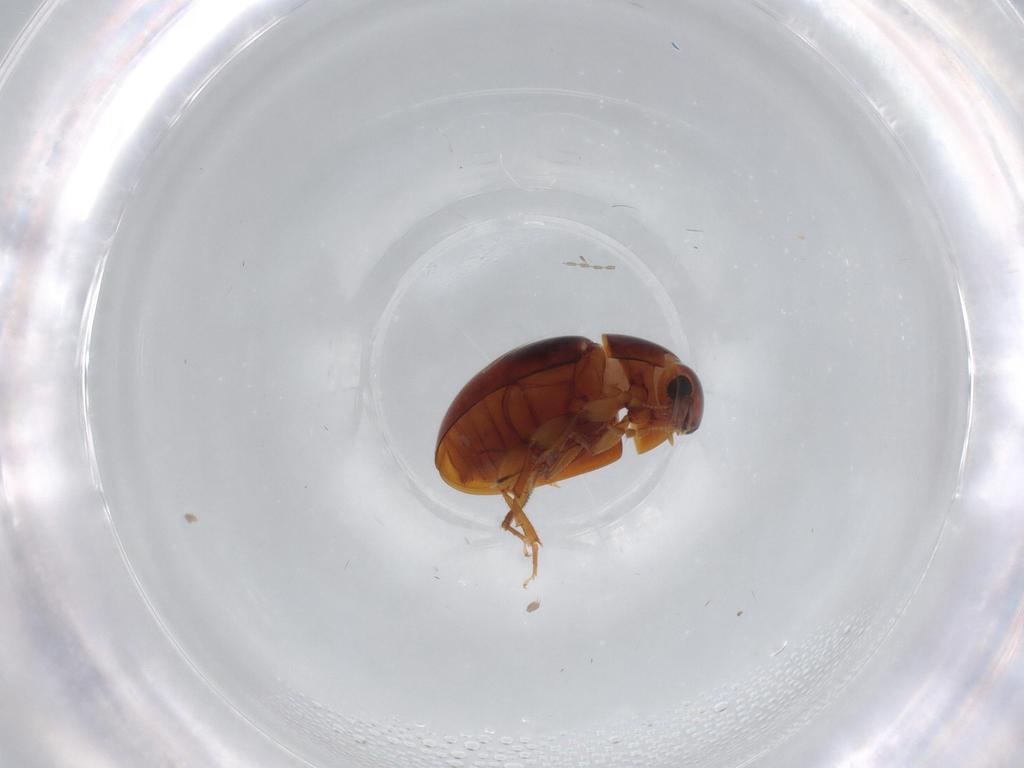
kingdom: Animalia
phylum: Arthropoda
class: Insecta
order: Coleoptera
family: Phalacridae
